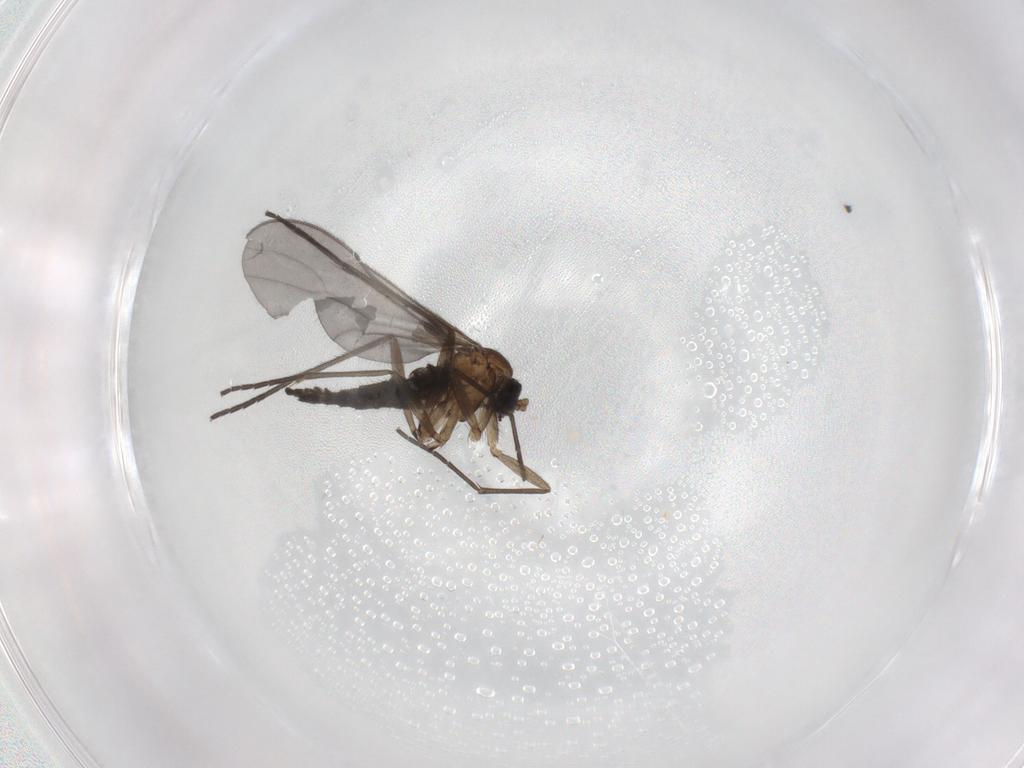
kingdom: Animalia
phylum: Arthropoda
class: Insecta
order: Diptera
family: Sciaridae
